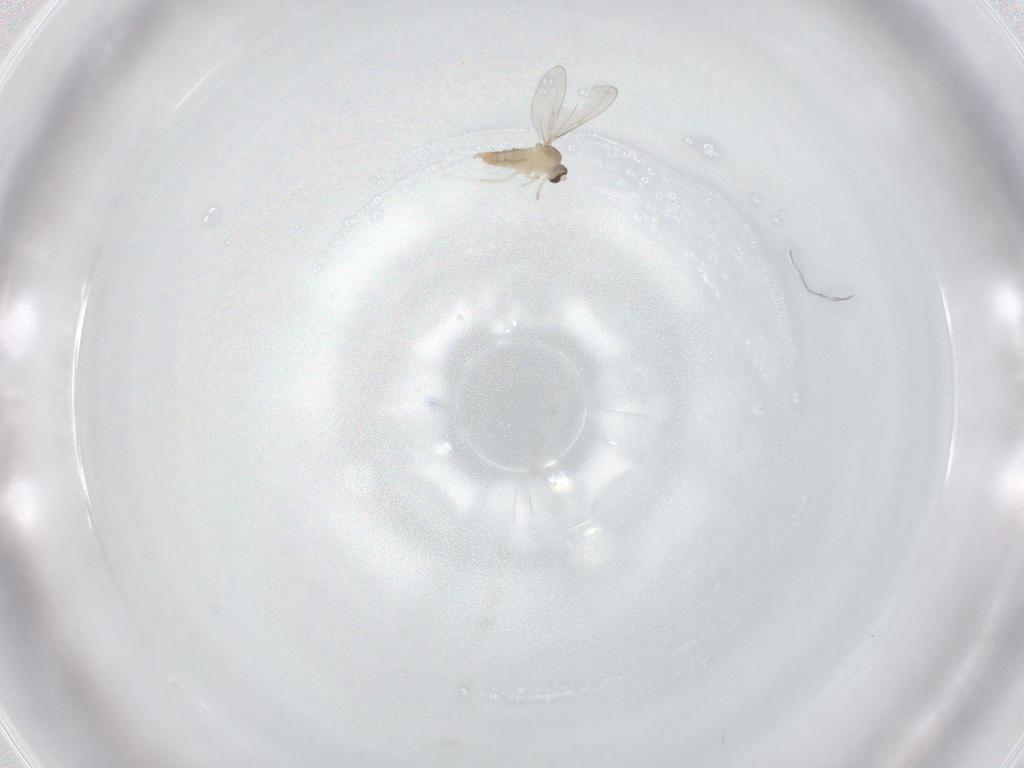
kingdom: Animalia
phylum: Arthropoda
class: Insecta
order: Diptera
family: Cecidomyiidae
